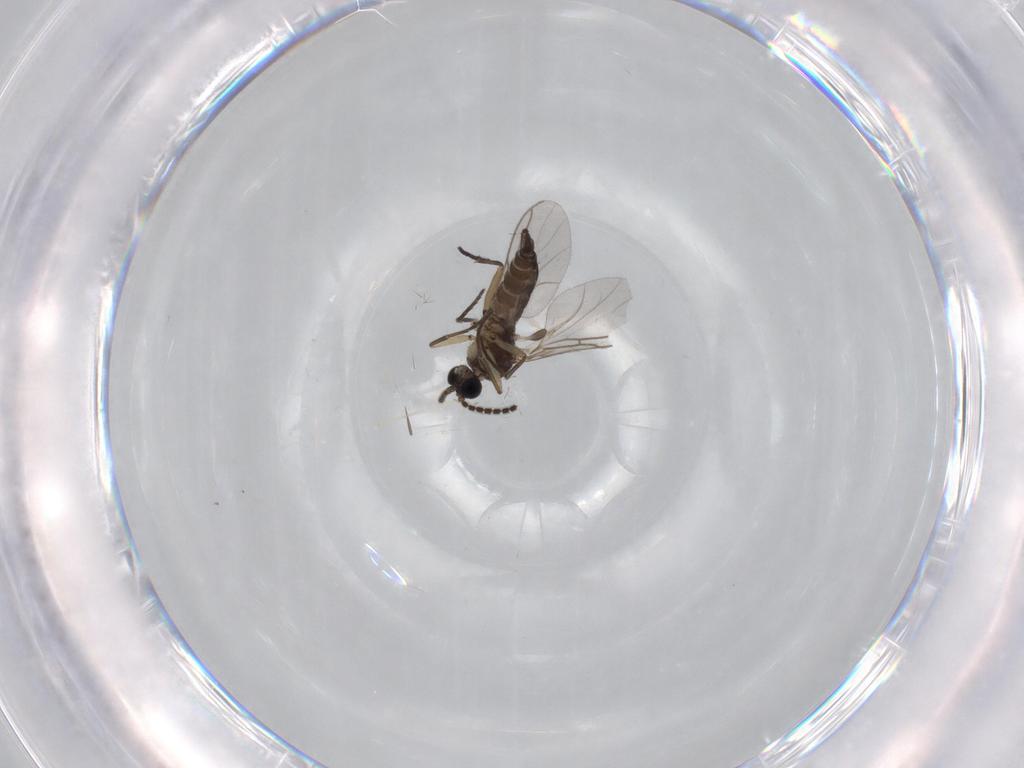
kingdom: Animalia
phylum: Arthropoda
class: Insecta
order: Diptera
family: Sciaridae
